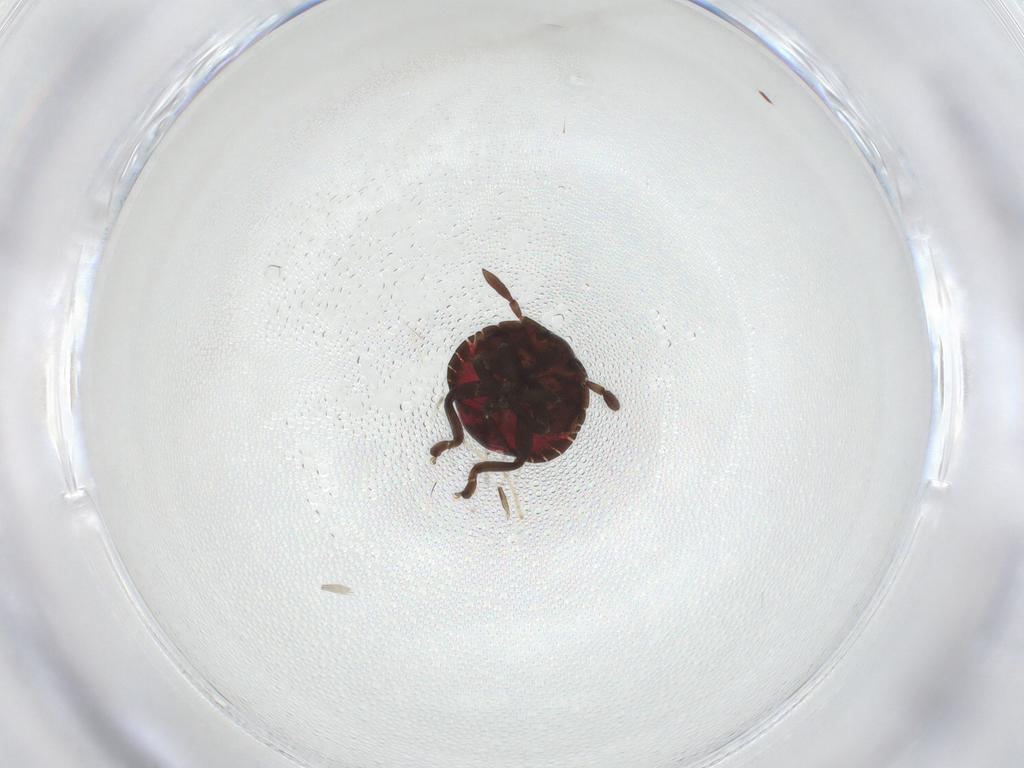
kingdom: Animalia
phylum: Arthropoda
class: Insecta
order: Hemiptera
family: Pentatomidae
